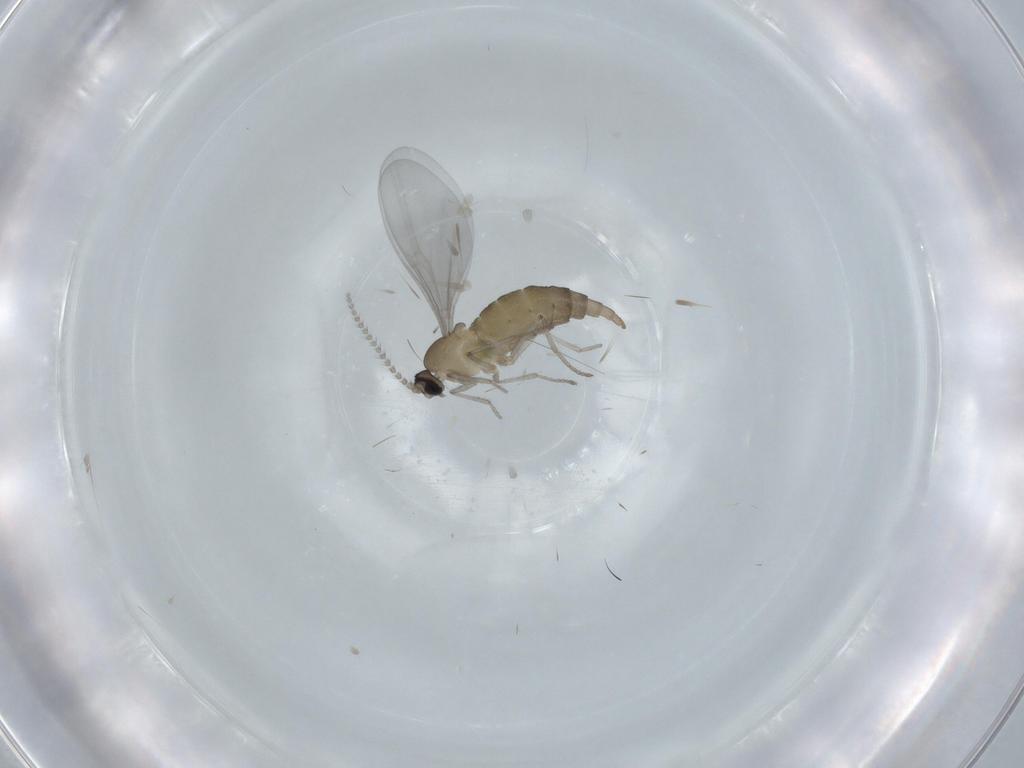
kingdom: Animalia
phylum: Arthropoda
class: Insecta
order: Diptera
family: Cecidomyiidae
